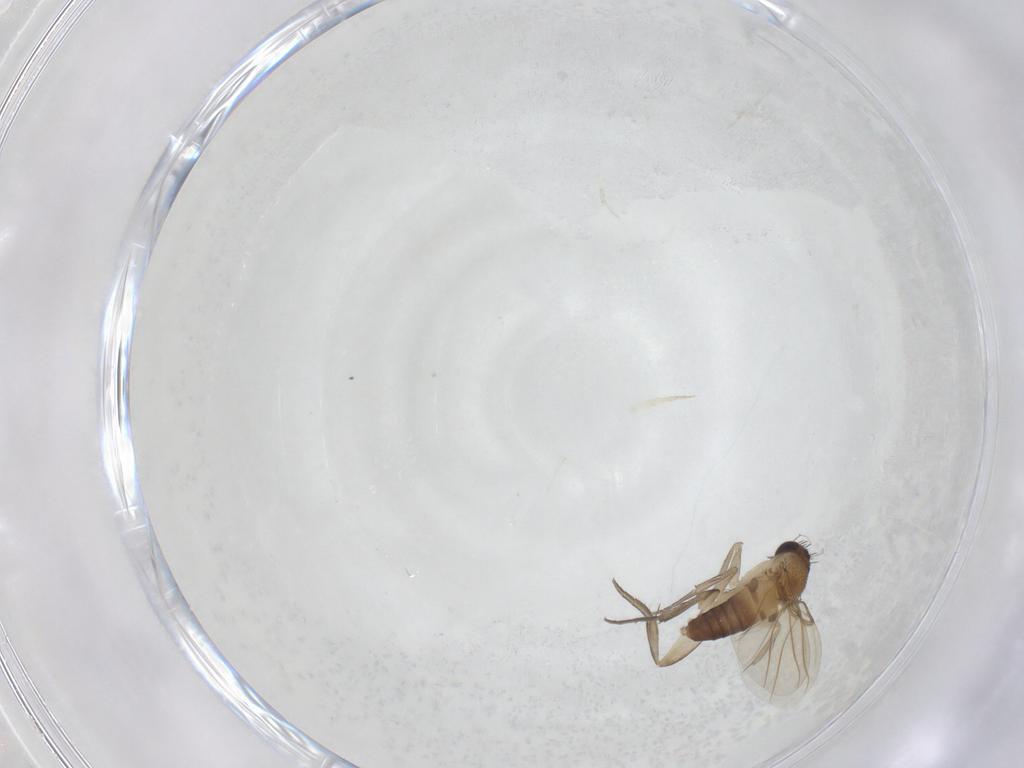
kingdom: Animalia
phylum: Arthropoda
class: Insecta
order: Diptera
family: Phoridae
